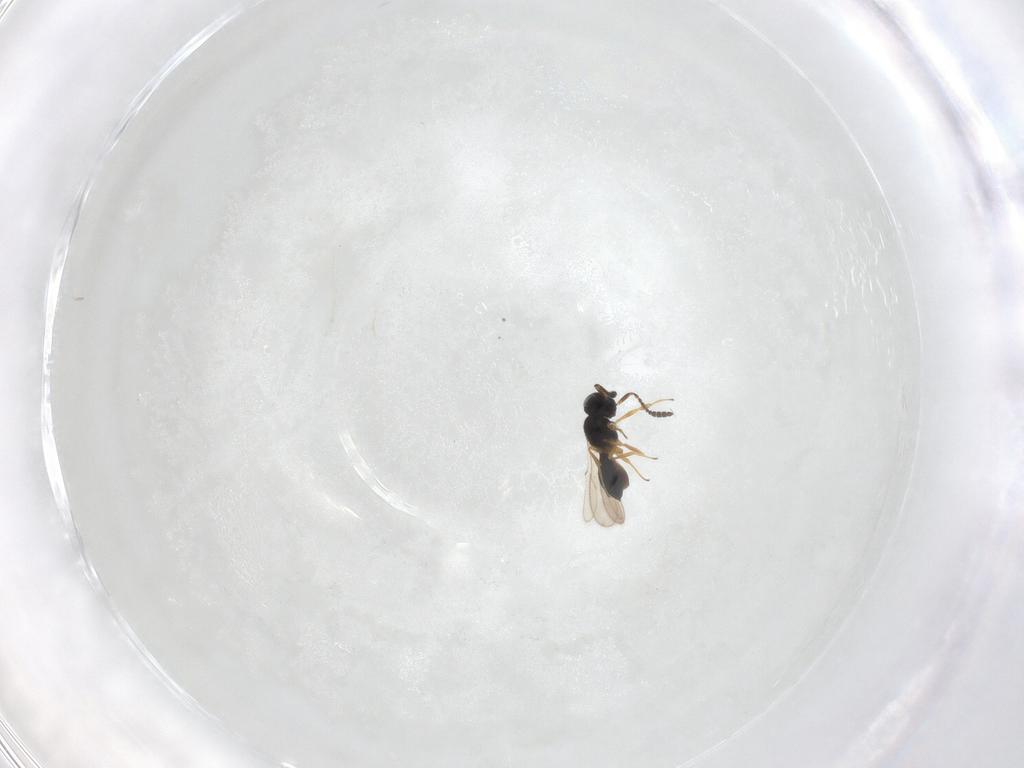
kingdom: Animalia
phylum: Arthropoda
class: Insecta
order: Hymenoptera
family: Scelionidae
